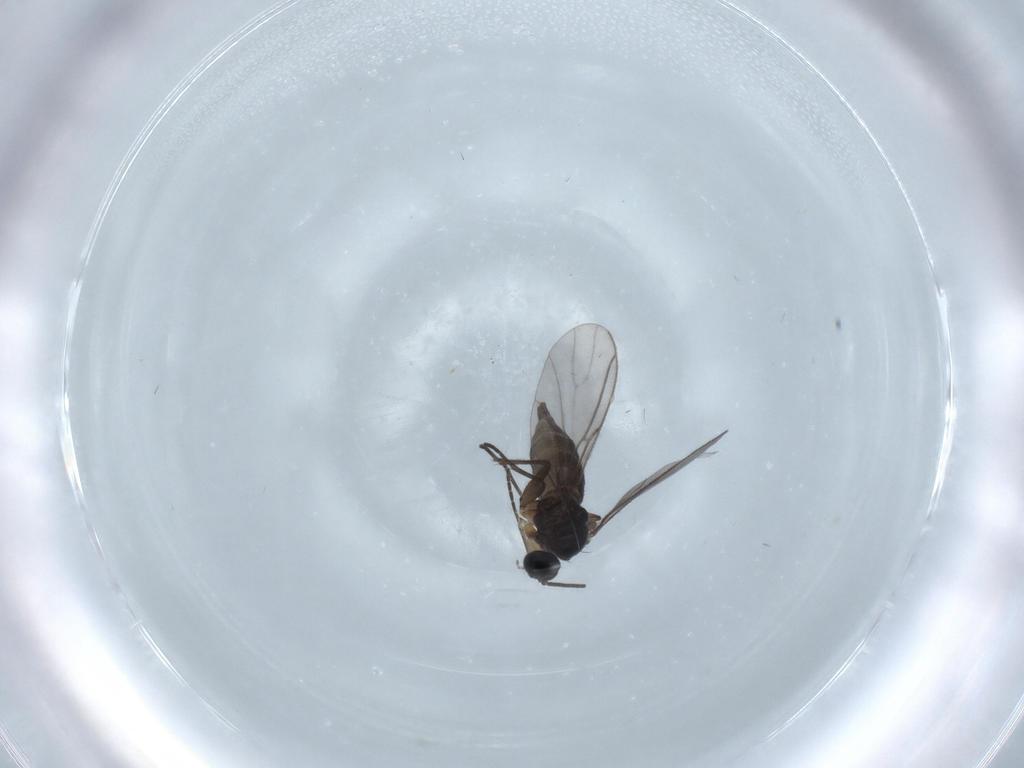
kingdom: Animalia
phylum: Arthropoda
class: Insecta
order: Diptera
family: Sciaridae
